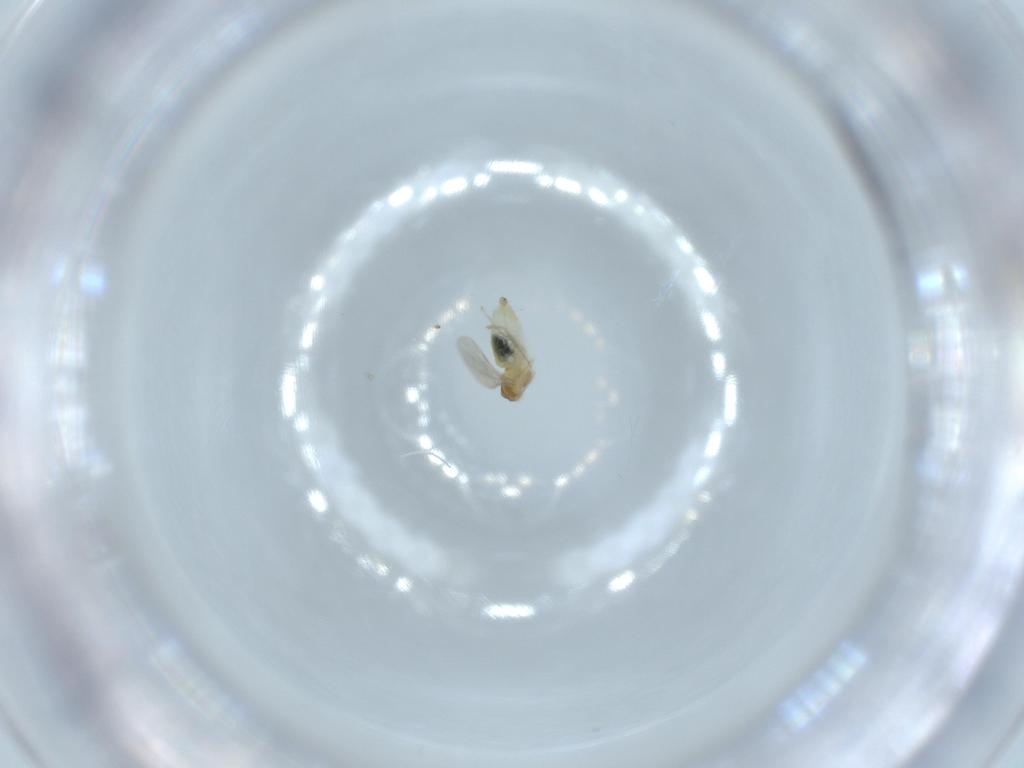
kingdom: Animalia
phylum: Arthropoda
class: Insecta
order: Diptera
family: Cecidomyiidae
